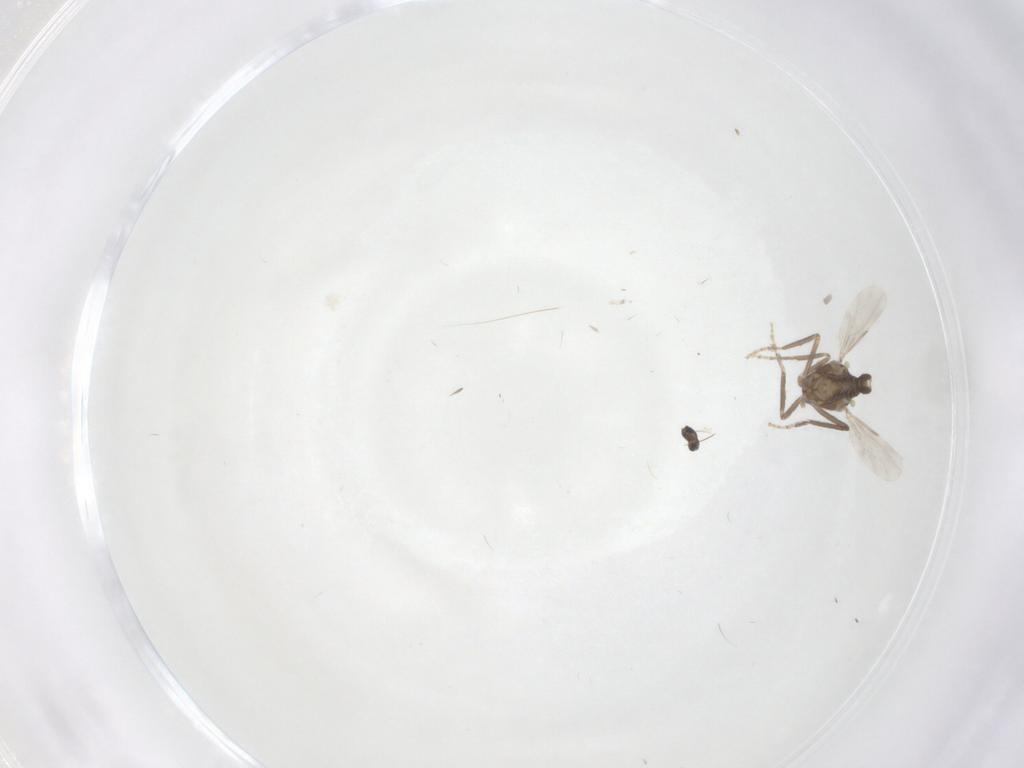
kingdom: Animalia
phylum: Arthropoda
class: Insecta
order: Diptera
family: Ceratopogonidae
